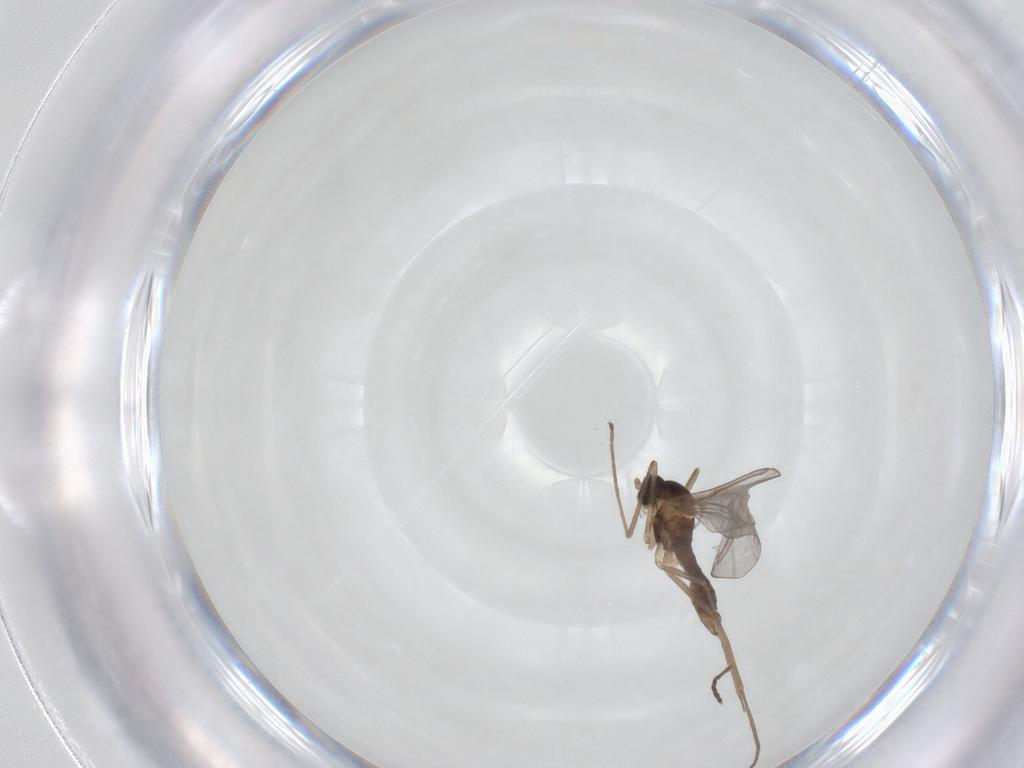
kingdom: Animalia
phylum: Arthropoda
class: Insecta
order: Diptera
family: Cecidomyiidae
